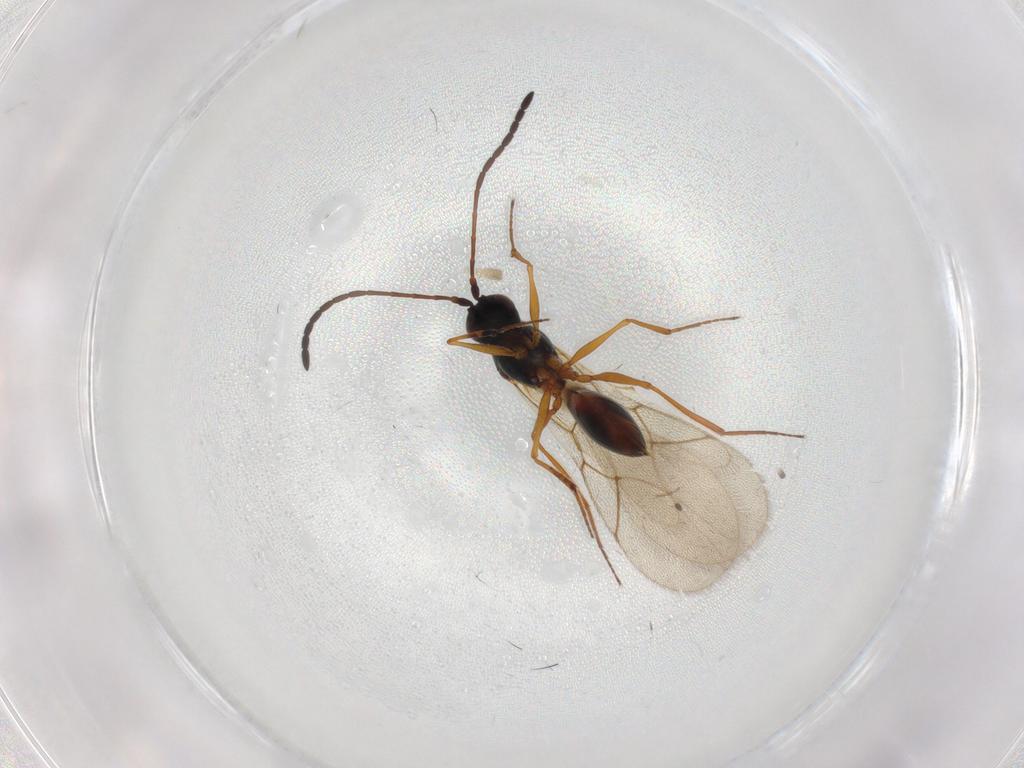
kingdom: Animalia
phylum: Arthropoda
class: Insecta
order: Hymenoptera
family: Figitidae
